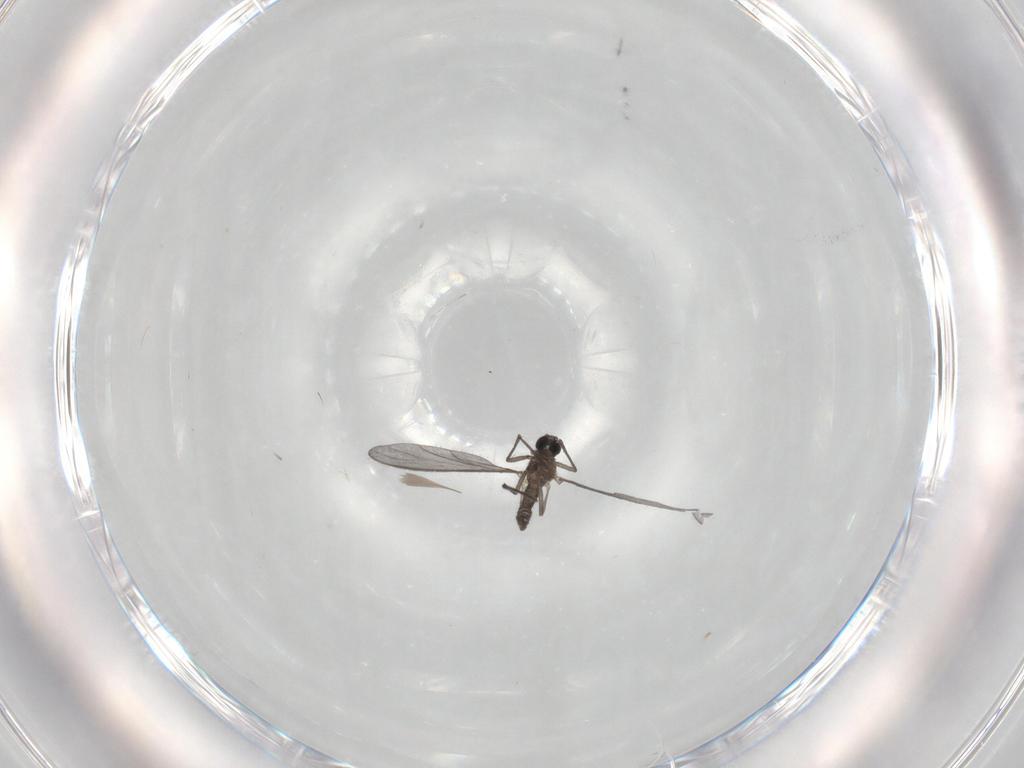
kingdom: Animalia
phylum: Arthropoda
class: Insecta
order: Diptera
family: Sciaridae
